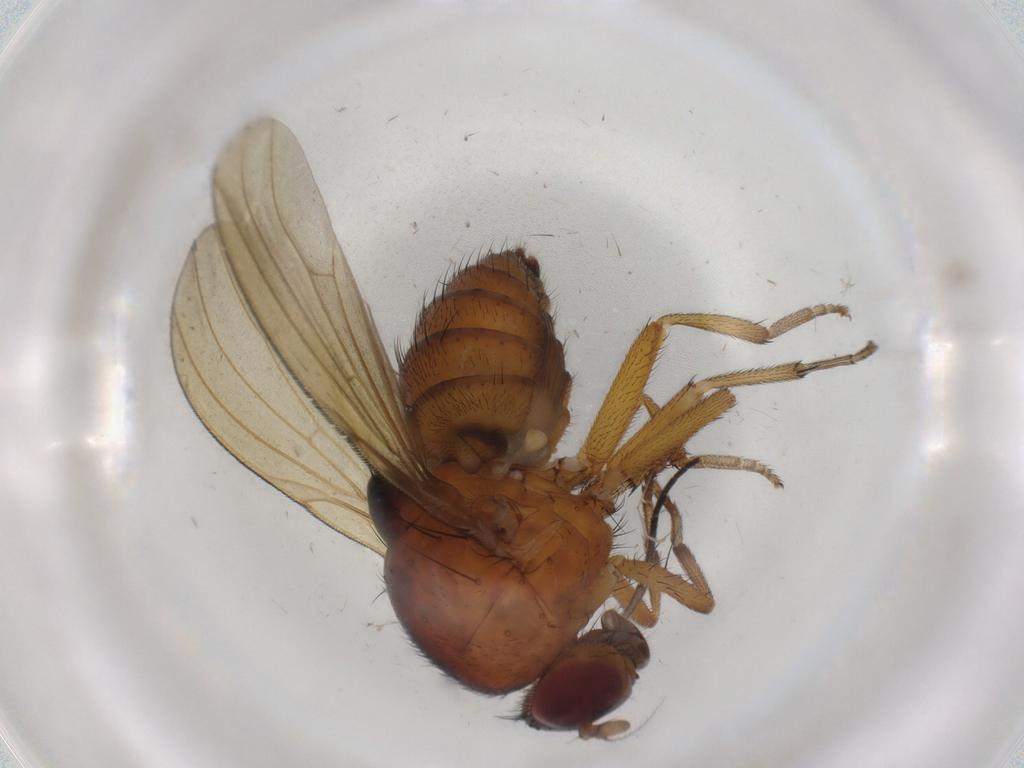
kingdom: Animalia
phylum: Arthropoda
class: Insecta
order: Diptera
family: Sciaridae
